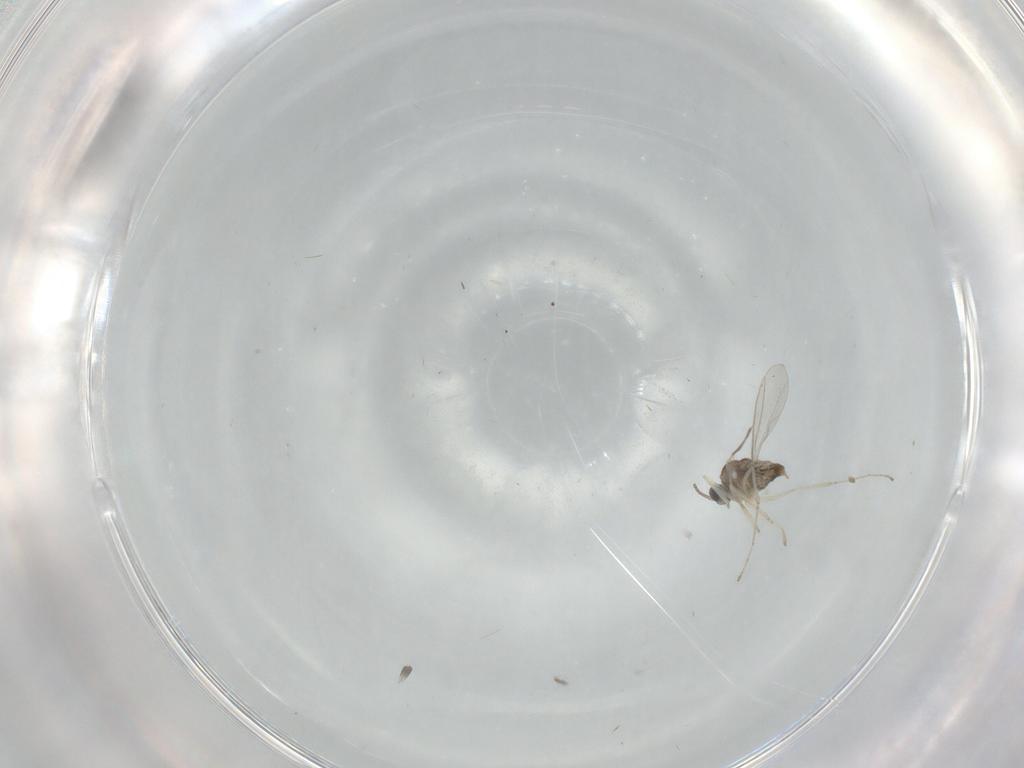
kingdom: Animalia
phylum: Arthropoda
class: Insecta
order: Diptera
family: Cecidomyiidae
